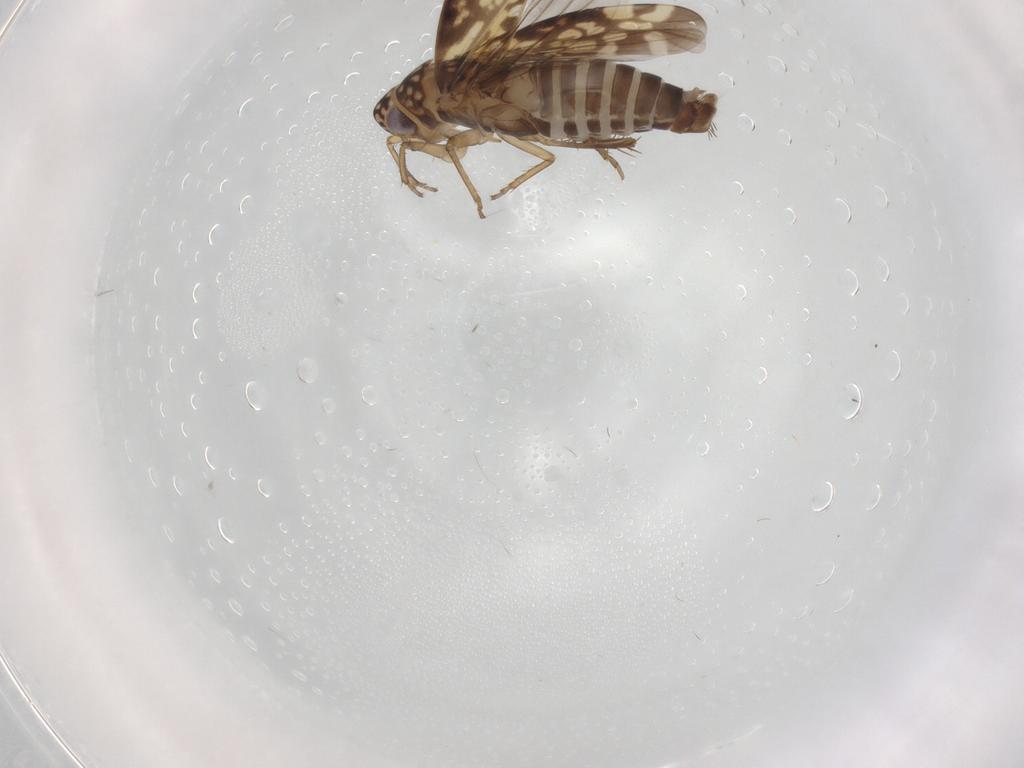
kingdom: Animalia
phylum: Arthropoda
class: Insecta
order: Hemiptera
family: Cicadellidae
